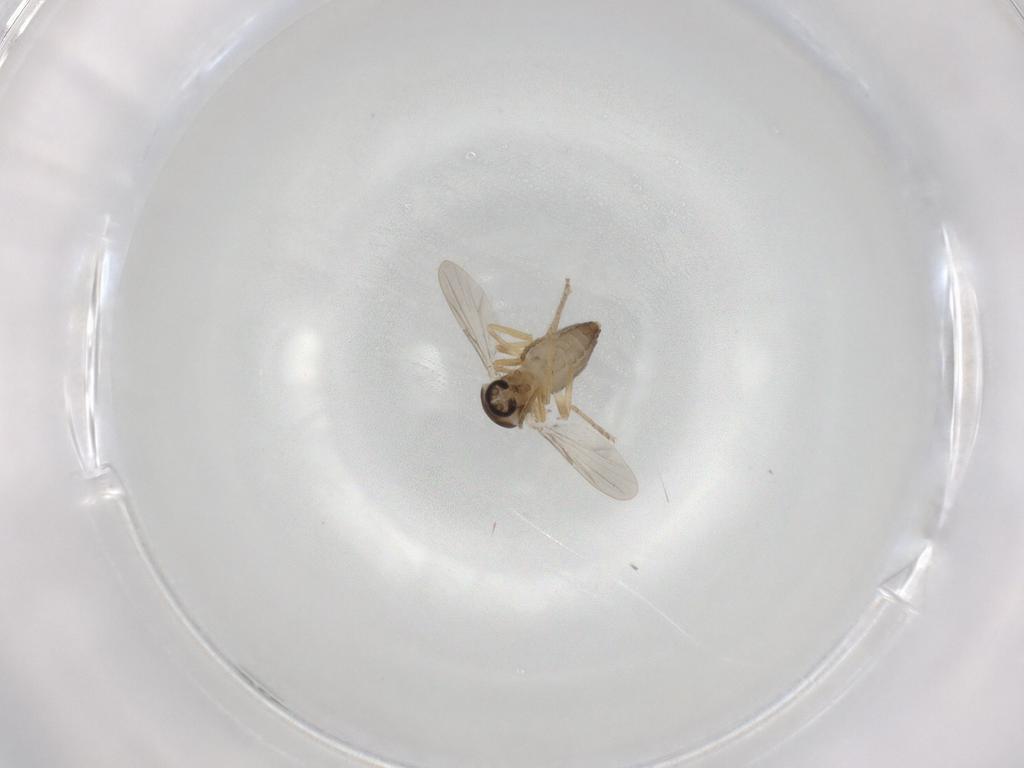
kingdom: Animalia
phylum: Arthropoda
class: Insecta
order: Diptera
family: Ceratopogonidae
